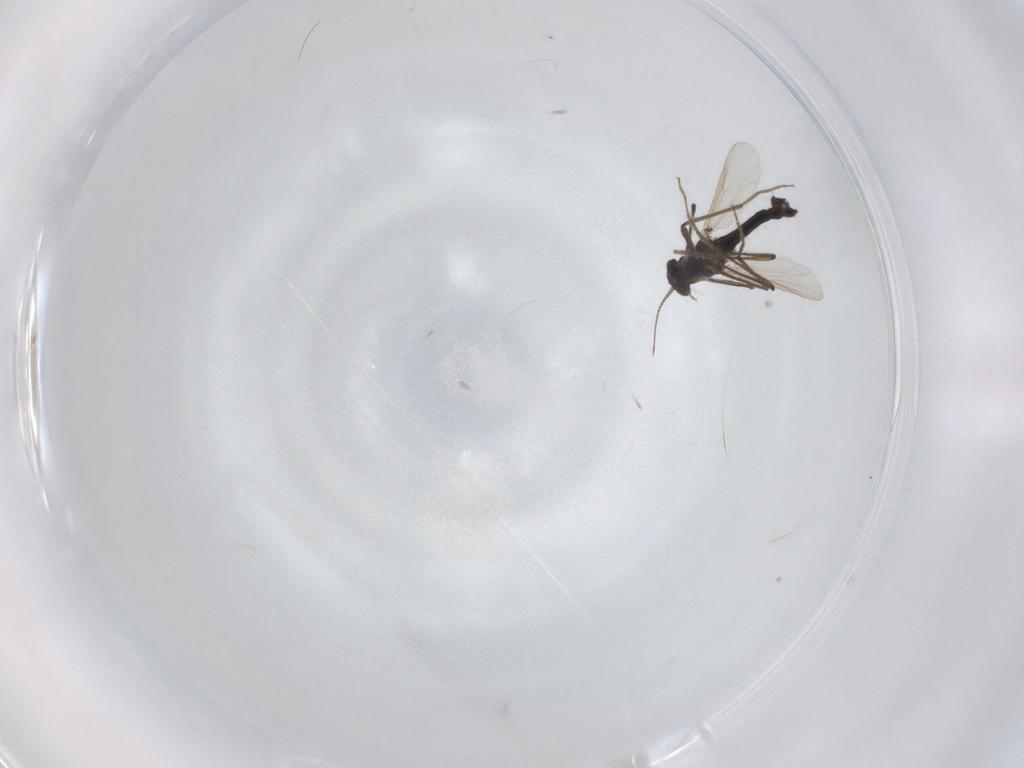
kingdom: Animalia
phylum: Arthropoda
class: Insecta
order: Diptera
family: Chironomidae
